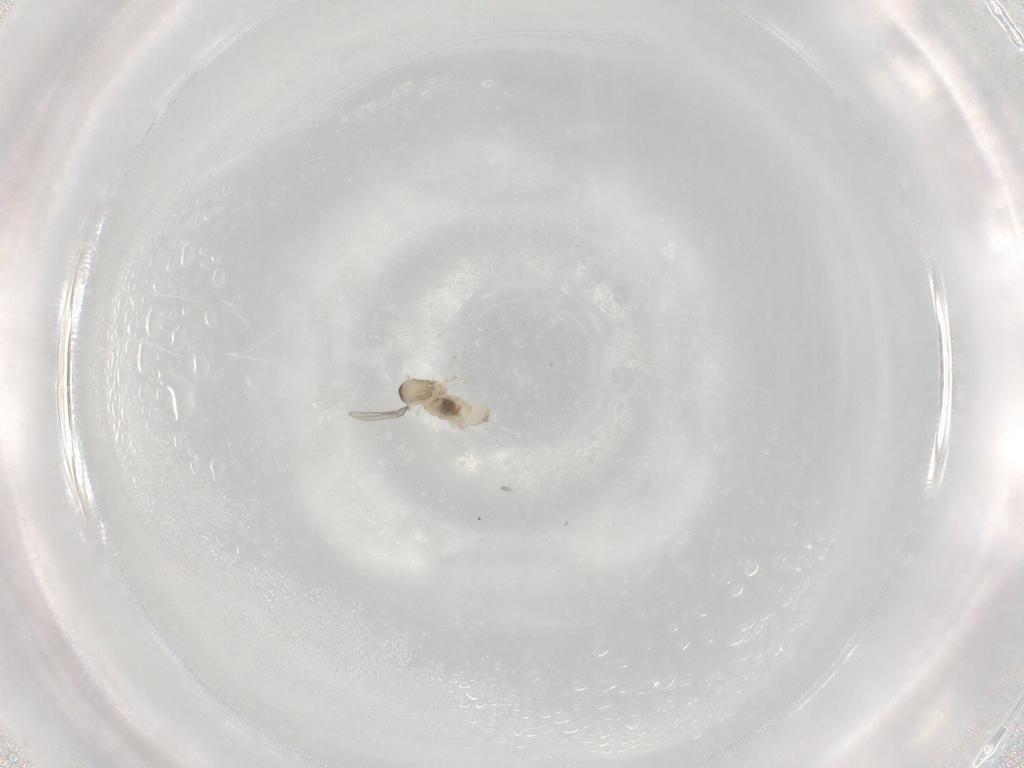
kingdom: Animalia
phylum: Arthropoda
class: Insecta
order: Diptera
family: Cecidomyiidae
